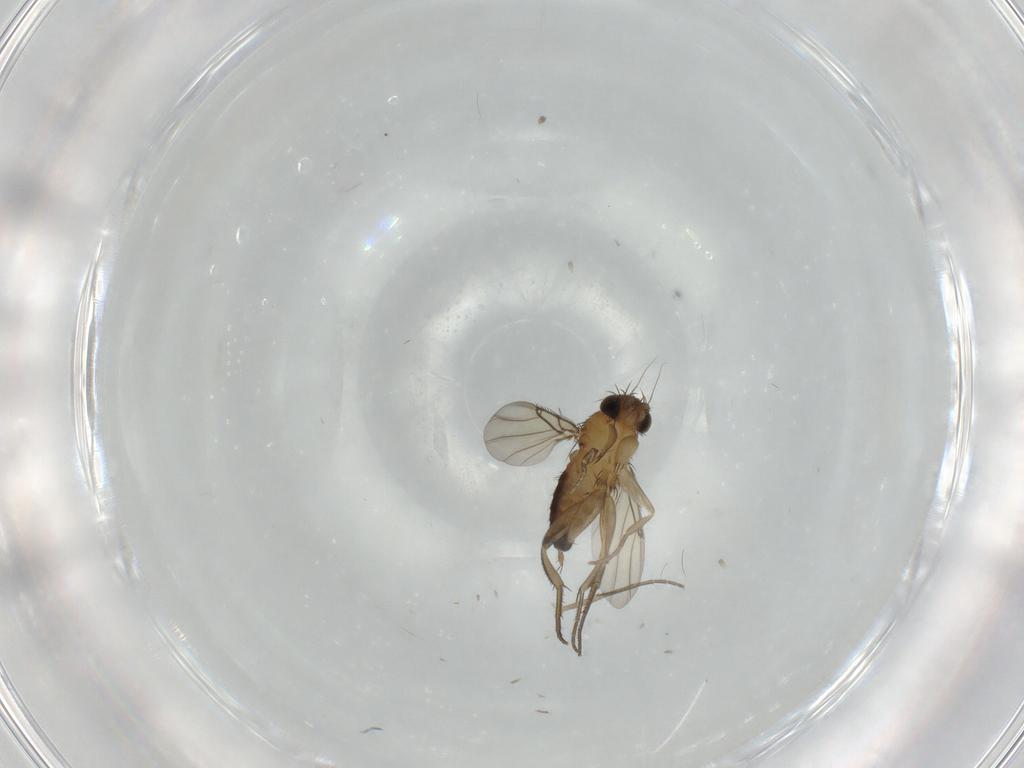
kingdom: Animalia
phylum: Arthropoda
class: Insecta
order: Diptera
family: Phoridae
